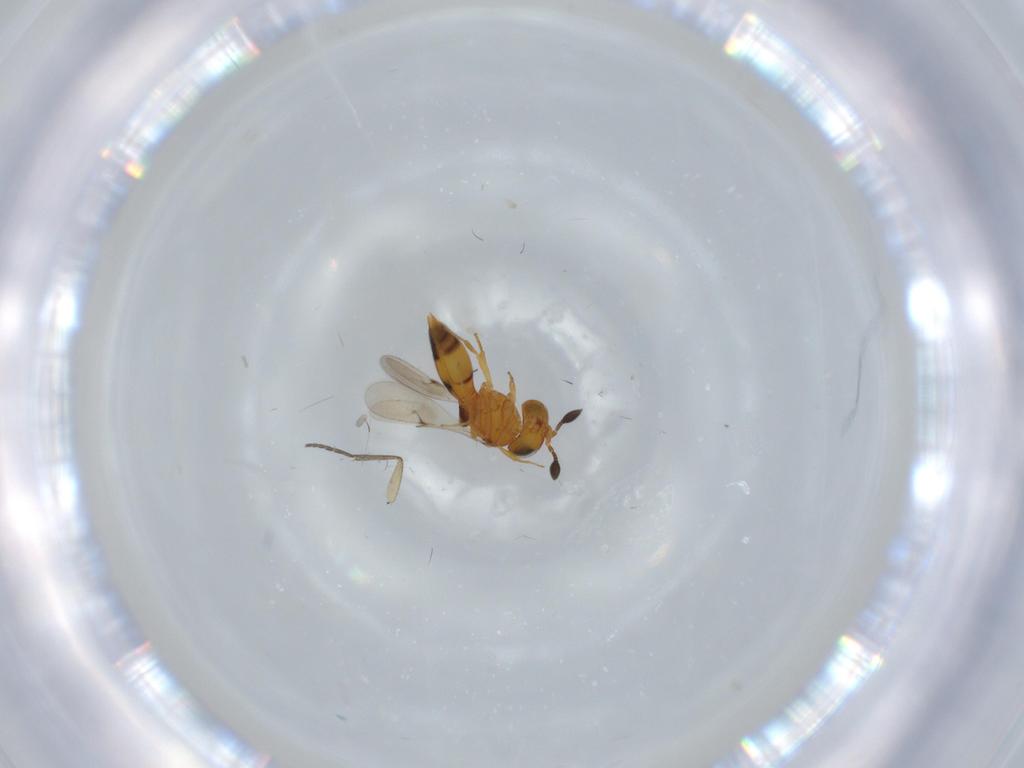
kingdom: Animalia
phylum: Arthropoda
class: Insecta
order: Hymenoptera
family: Scelionidae
